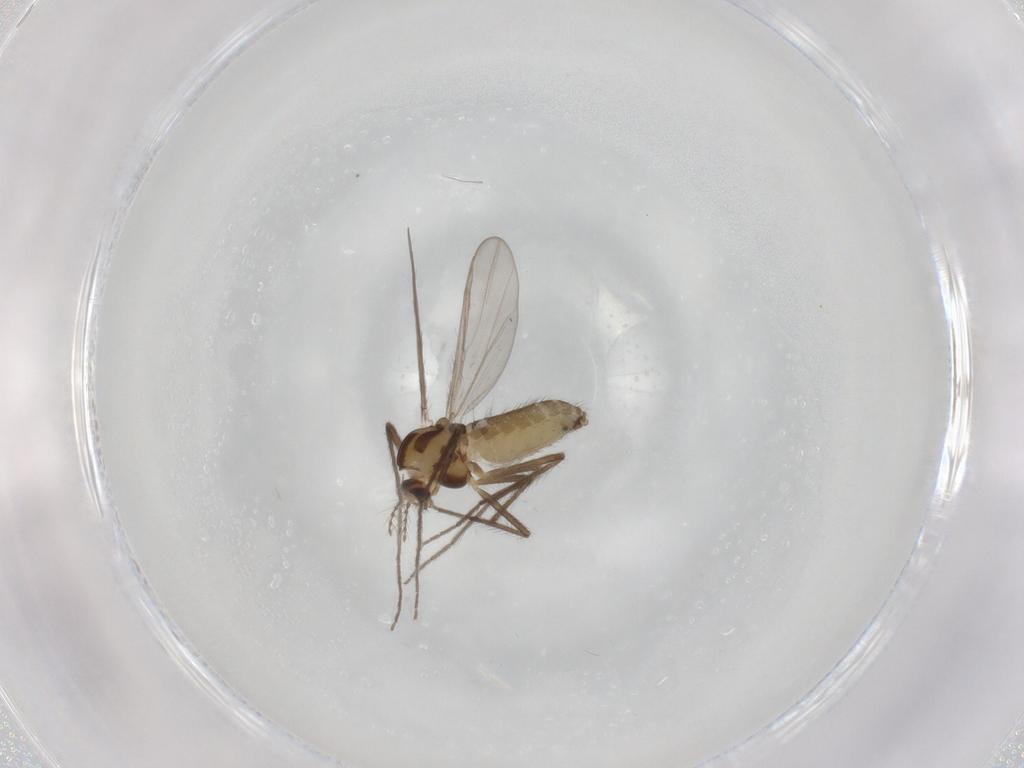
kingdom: Animalia
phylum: Arthropoda
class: Insecta
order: Diptera
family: Chironomidae
